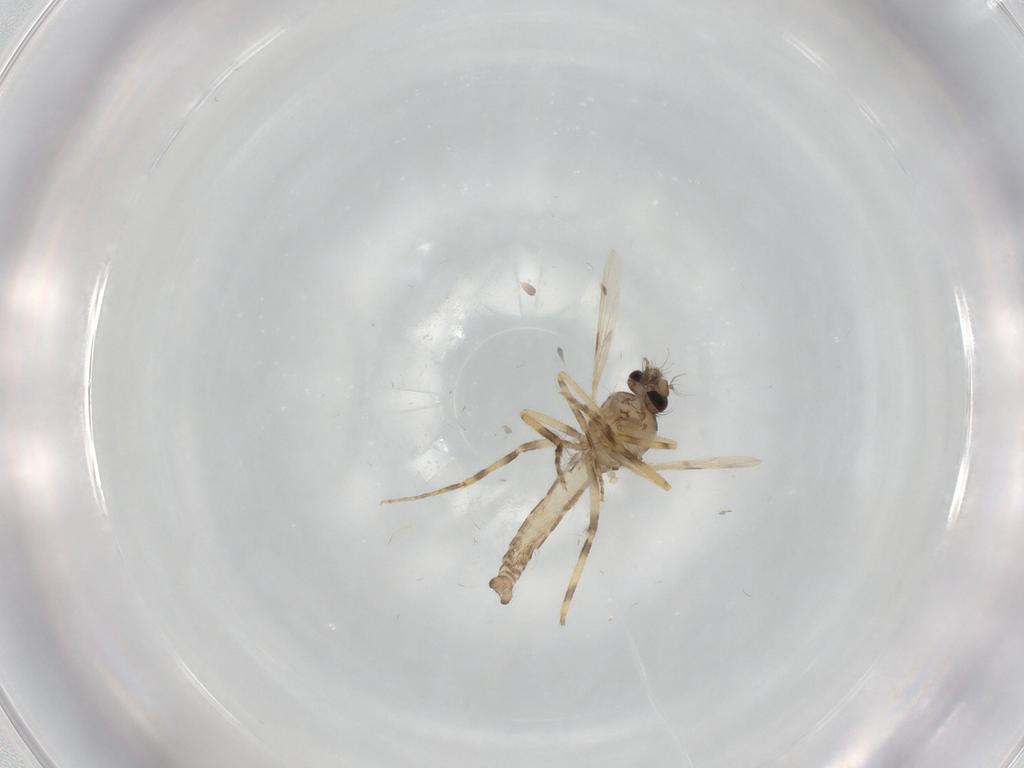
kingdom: Animalia
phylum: Arthropoda
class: Insecta
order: Diptera
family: Ceratopogonidae
